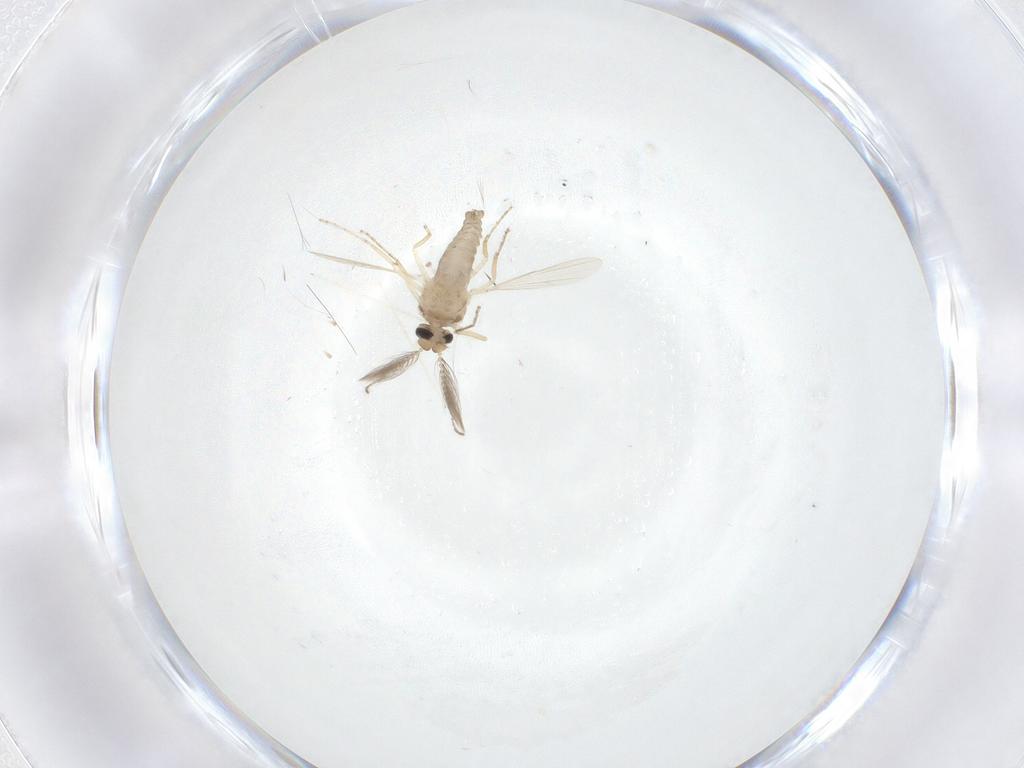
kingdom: Animalia
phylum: Arthropoda
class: Insecta
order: Diptera
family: Ceratopogonidae
